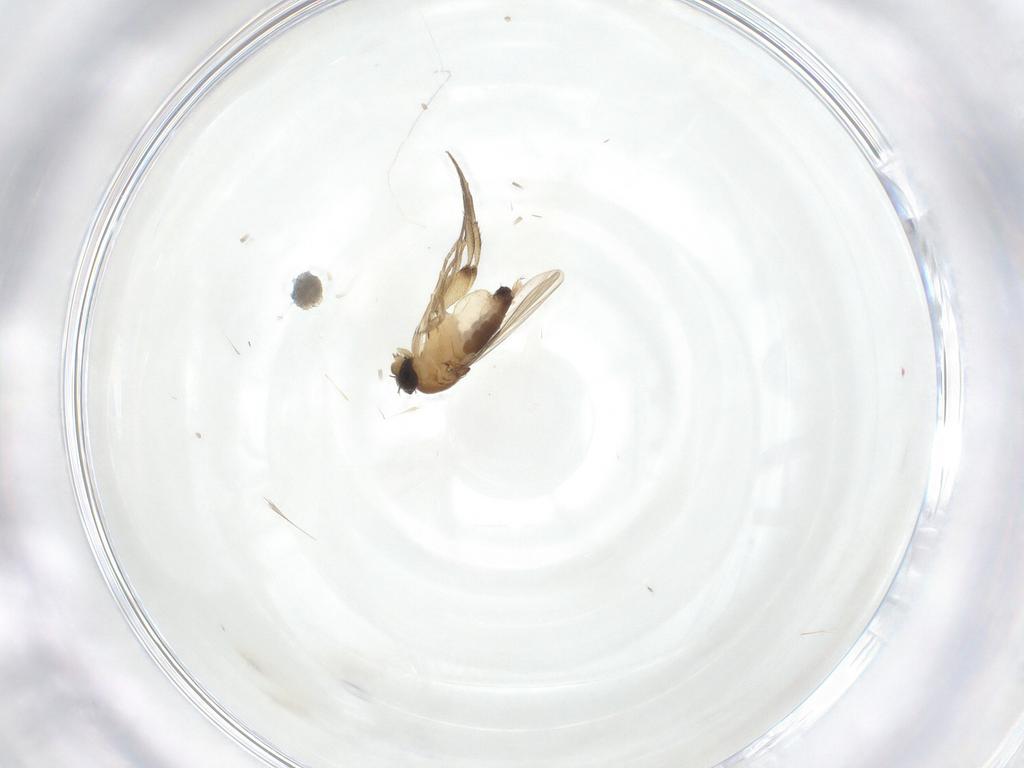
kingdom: Animalia
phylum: Arthropoda
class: Insecta
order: Diptera
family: Phoridae
